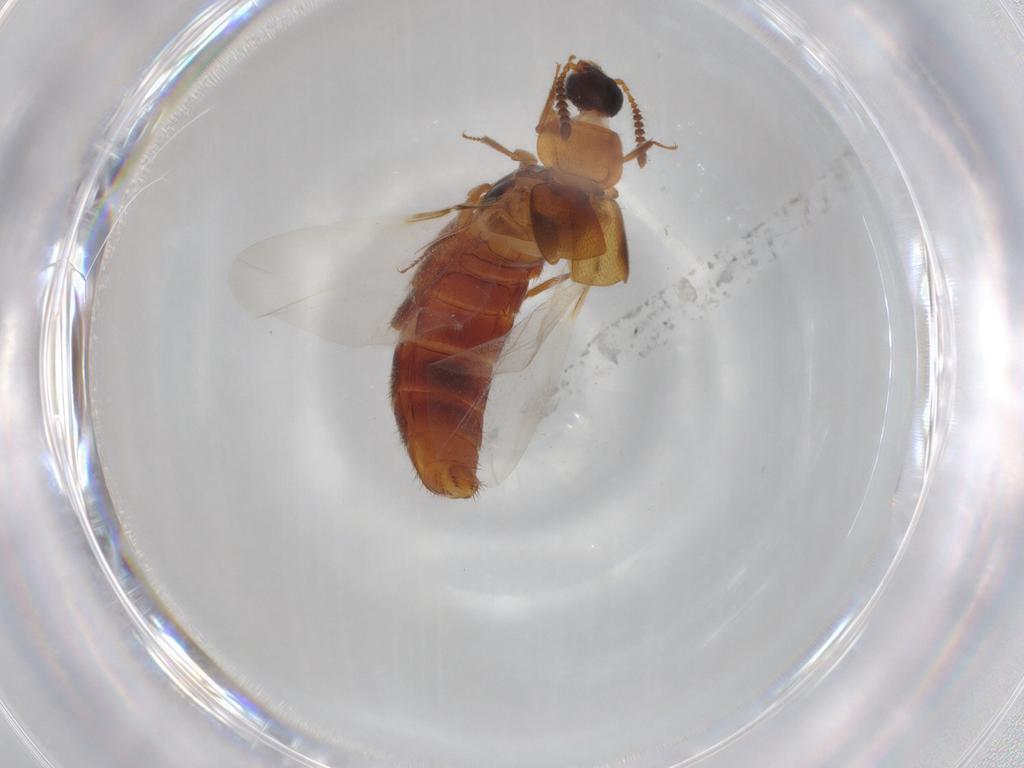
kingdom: Animalia
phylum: Arthropoda
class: Insecta
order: Coleoptera
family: Staphylinidae
